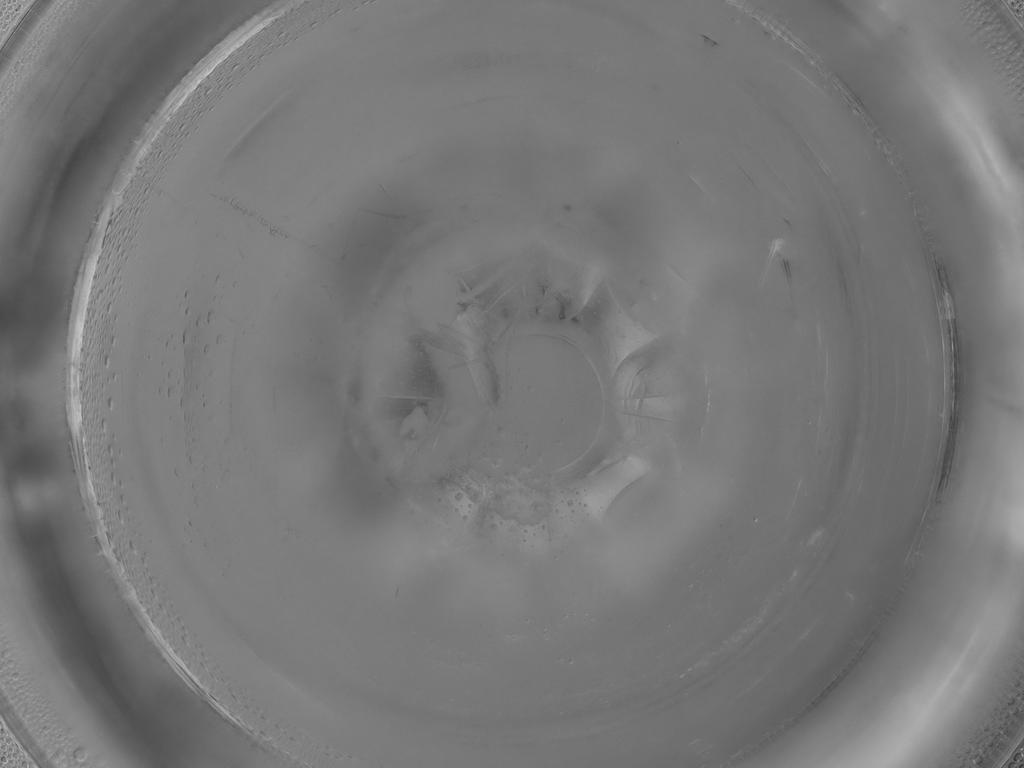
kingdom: Animalia
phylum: Arthropoda
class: Insecta
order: Diptera
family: Cecidomyiidae
